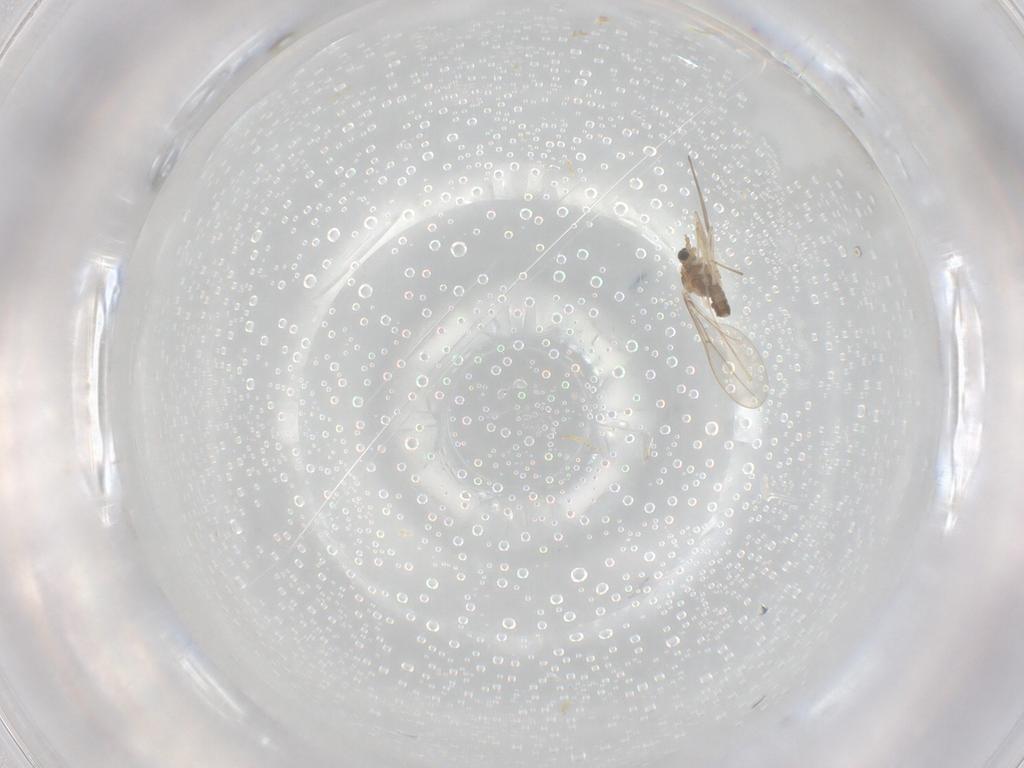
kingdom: Animalia
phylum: Arthropoda
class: Insecta
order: Diptera
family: Cecidomyiidae
